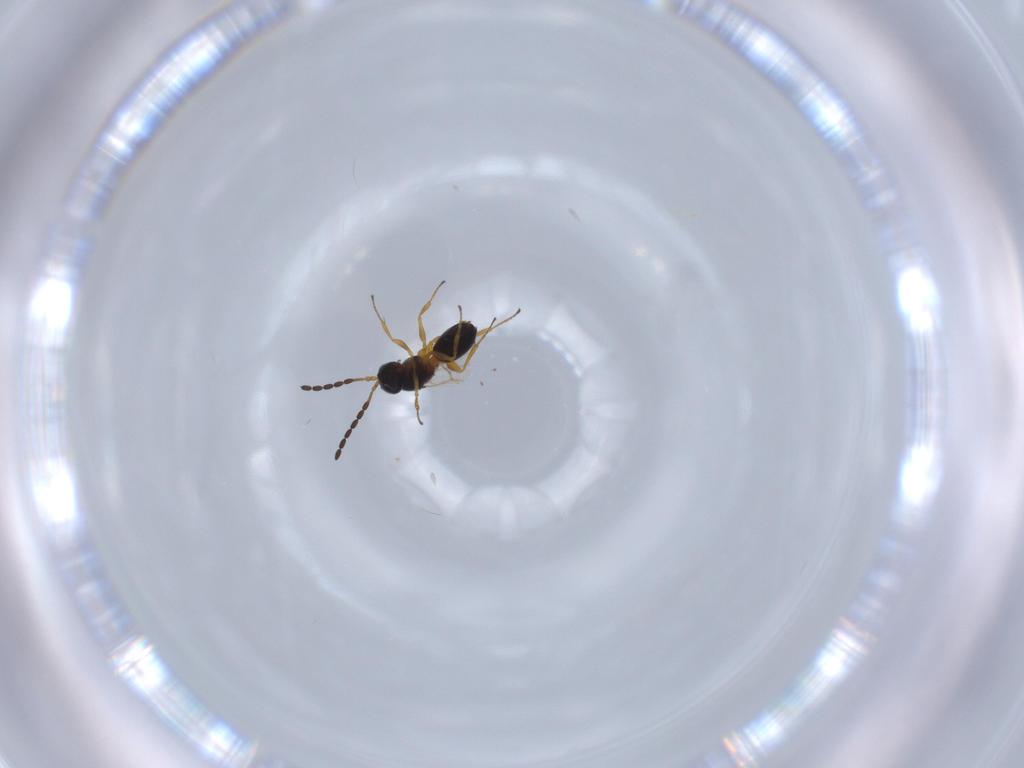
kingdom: Animalia
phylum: Arthropoda
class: Insecta
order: Hymenoptera
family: Figitidae
